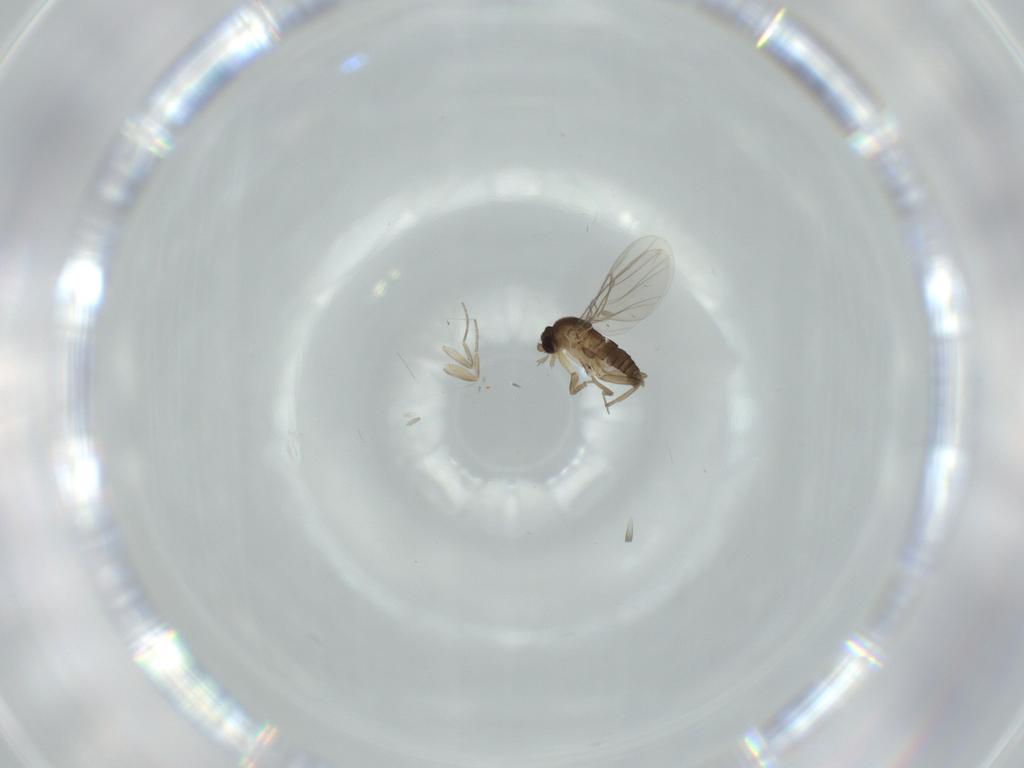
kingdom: Animalia
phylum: Arthropoda
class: Insecta
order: Diptera
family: Phoridae
